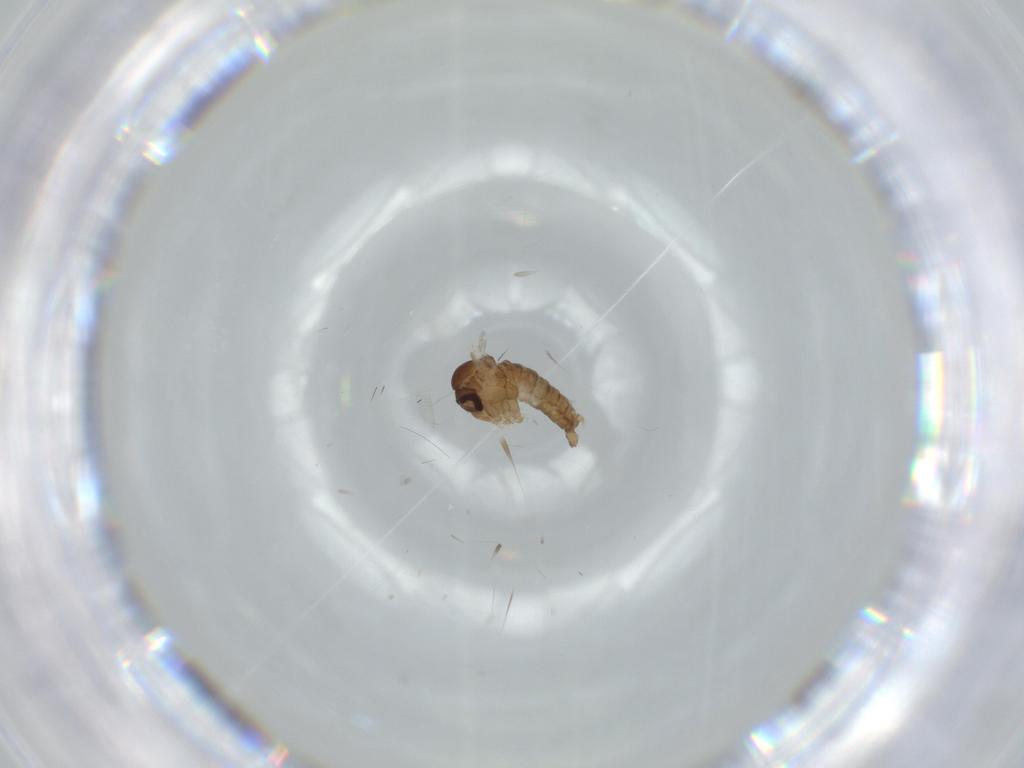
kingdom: Animalia
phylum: Arthropoda
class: Insecta
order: Diptera
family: Psychodidae
